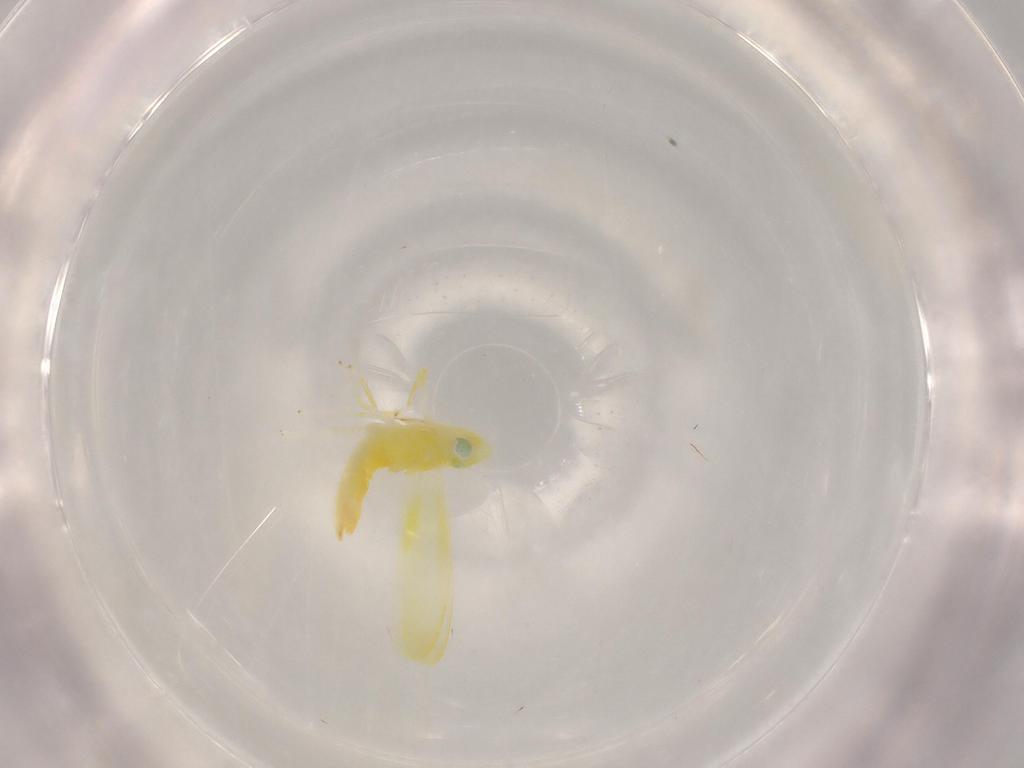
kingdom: Animalia
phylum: Arthropoda
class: Insecta
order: Hemiptera
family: Cicadellidae
